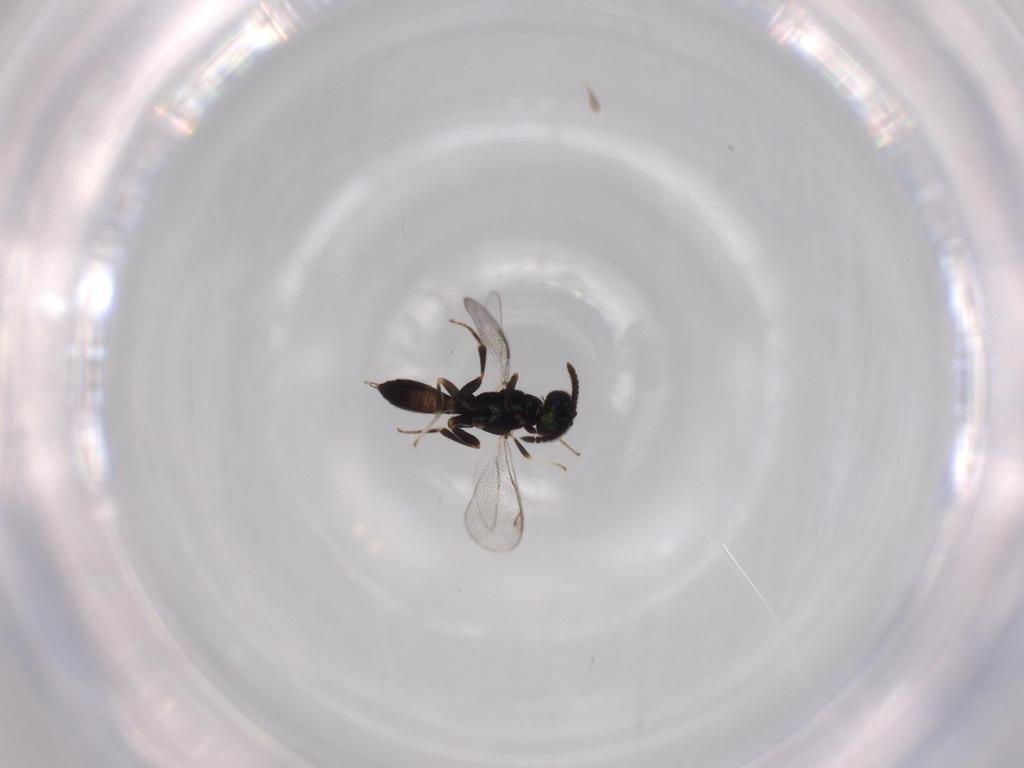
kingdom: Animalia
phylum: Arthropoda
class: Insecta
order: Hymenoptera
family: Cleonyminae
